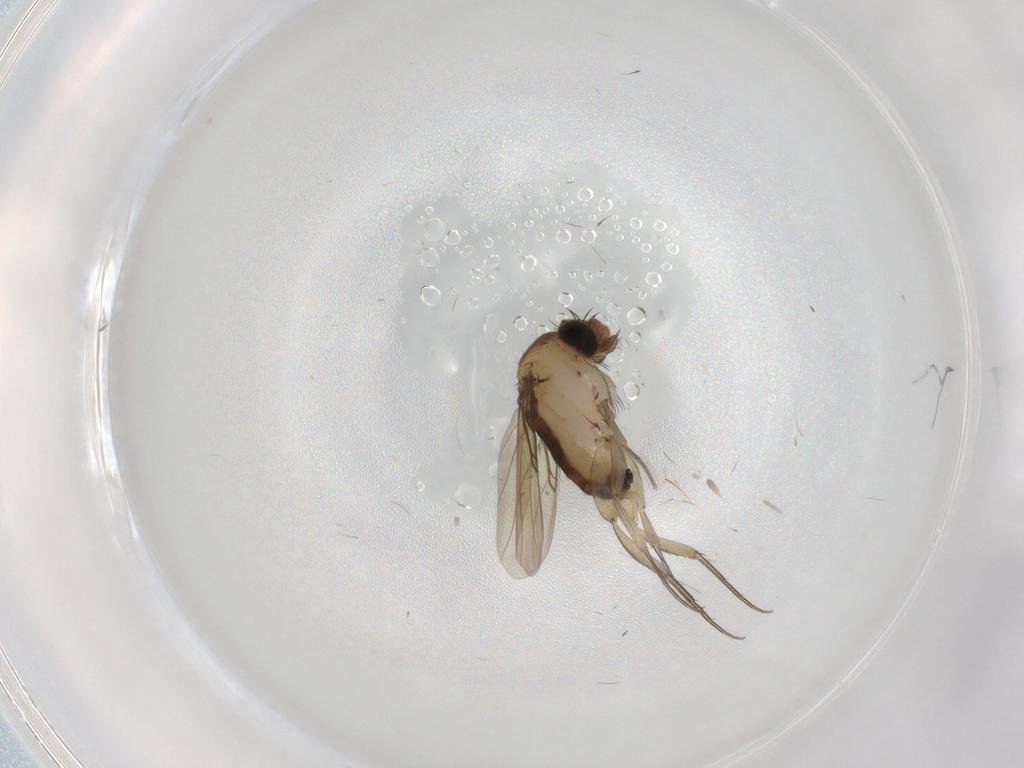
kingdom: Animalia
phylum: Arthropoda
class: Insecta
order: Diptera
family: Phoridae
